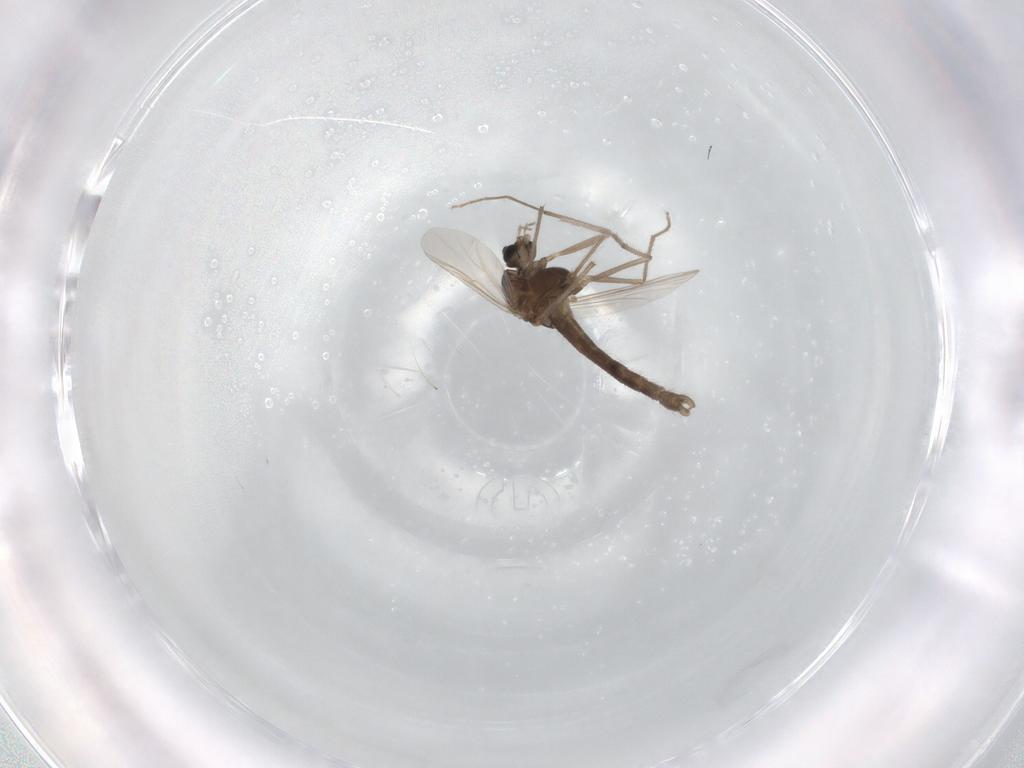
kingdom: Animalia
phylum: Arthropoda
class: Insecta
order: Diptera
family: Chironomidae
